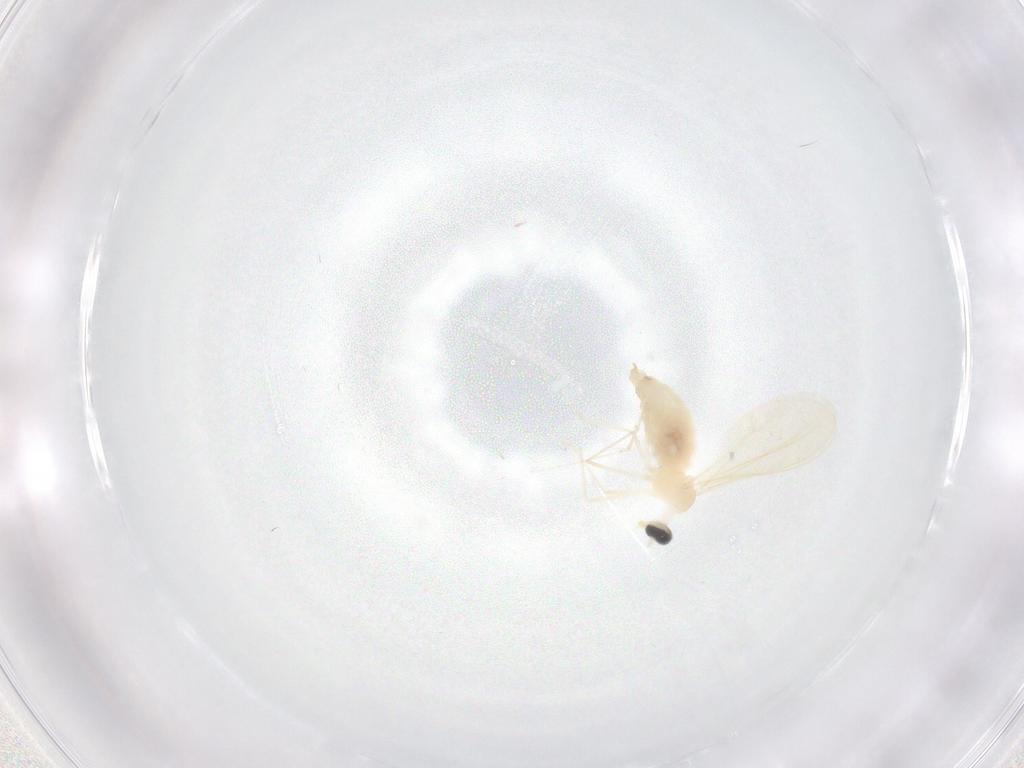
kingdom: Animalia
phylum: Arthropoda
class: Insecta
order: Diptera
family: Cecidomyiidae
